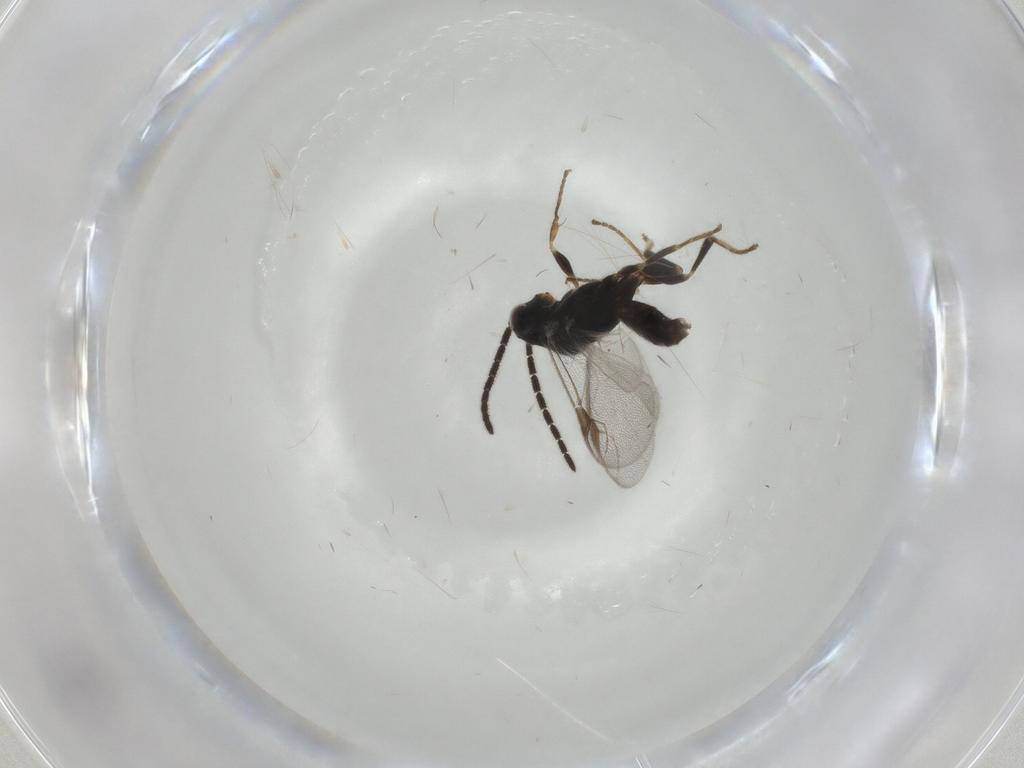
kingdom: Animalia
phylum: Arthropoda
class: Insecta
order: Hymenoptera
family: Dryinidae
